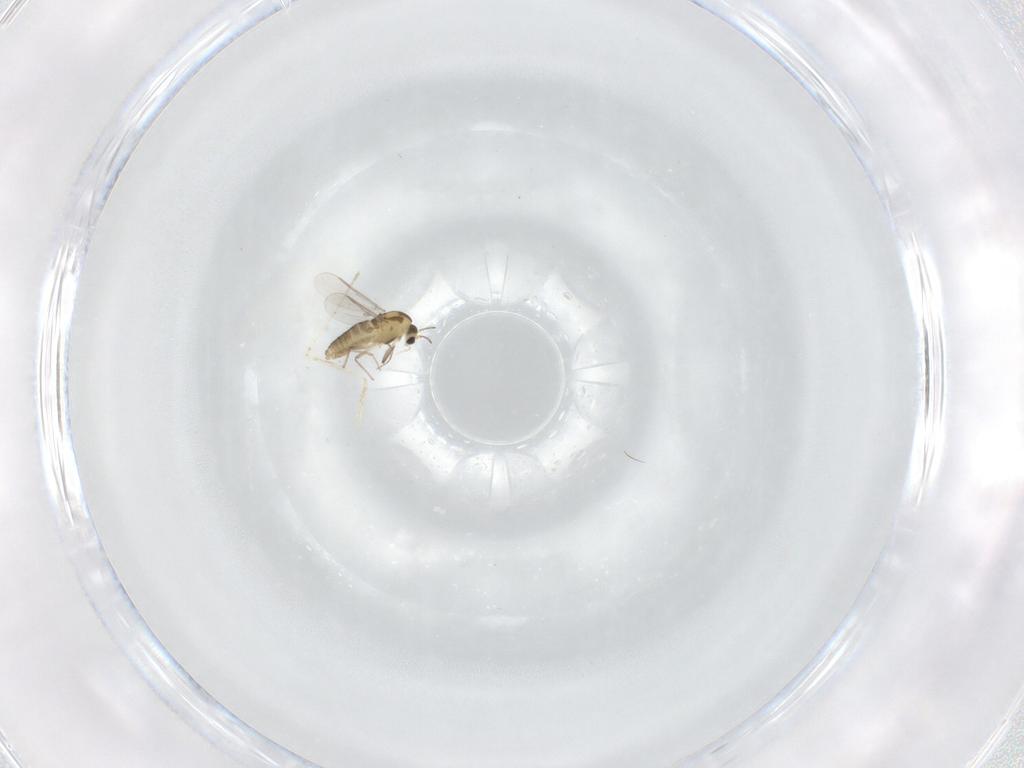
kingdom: Animalia
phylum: Arthropoda
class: Insecta
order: Diptera
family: Chironomidae
